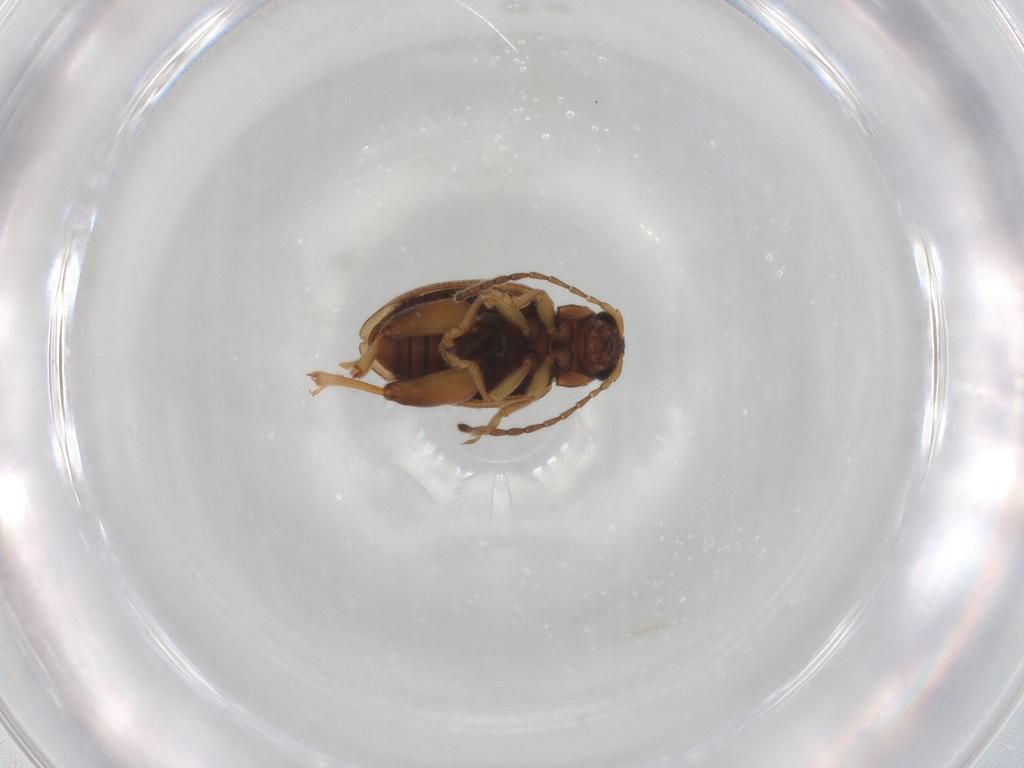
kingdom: Animalia
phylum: Arthropoda
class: Insecta
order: Coleoptera
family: Chrysomelidae
